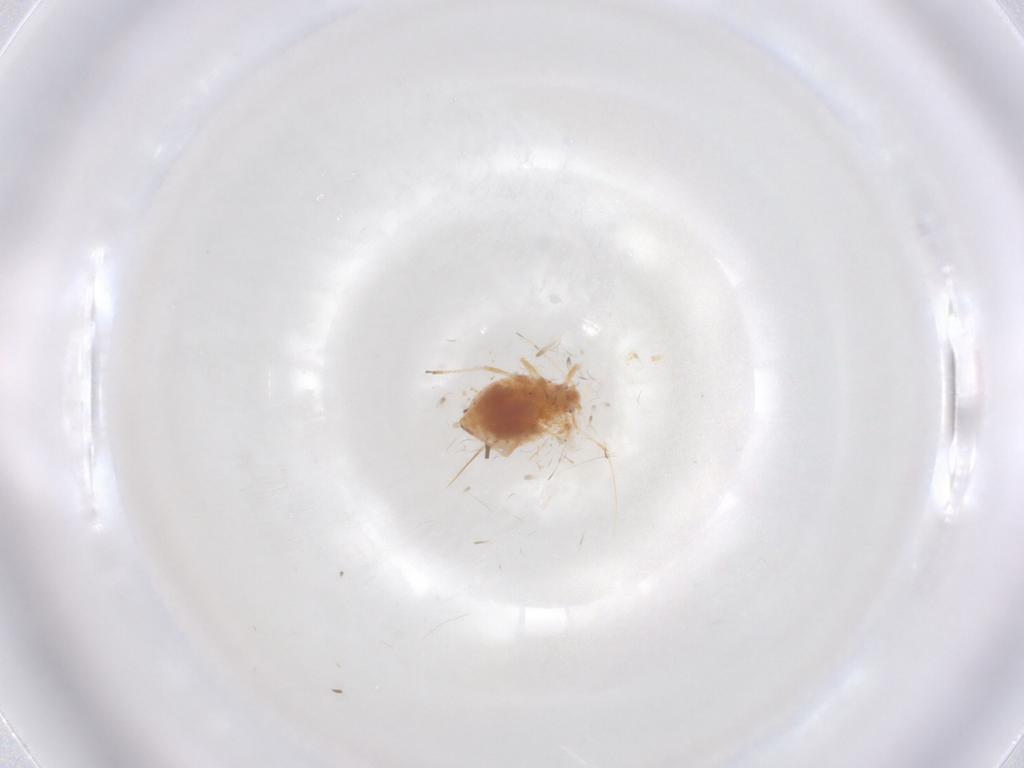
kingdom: Animalia
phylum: Arthropoda
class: Insecta
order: Hemiptera
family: Aphididae
